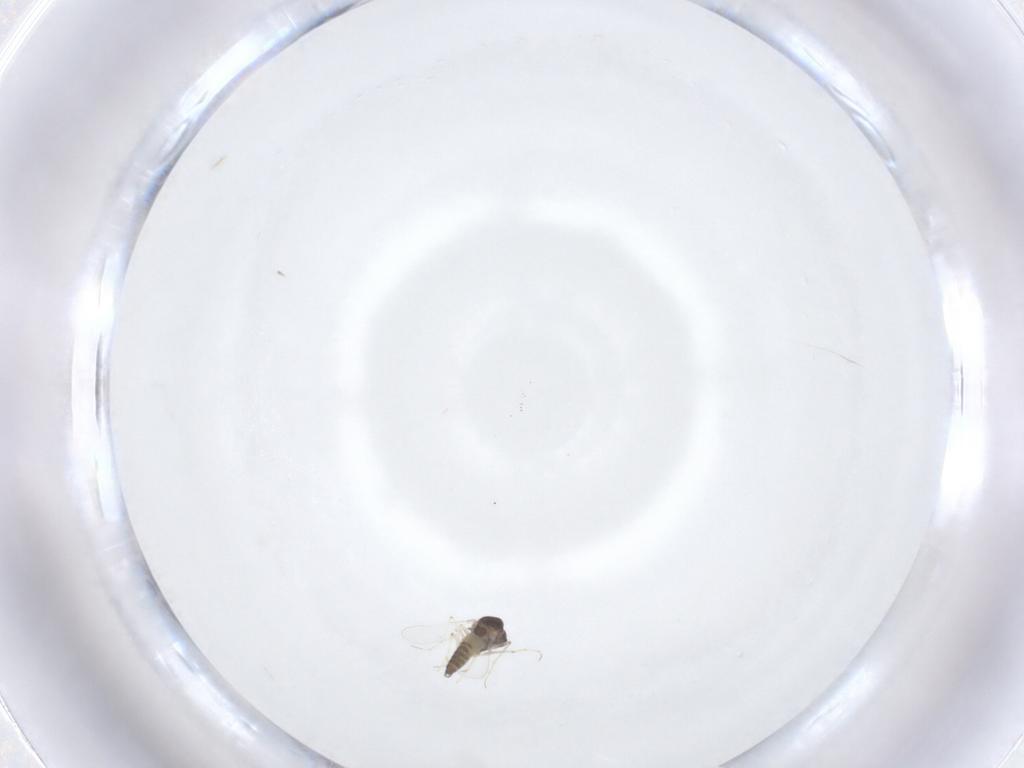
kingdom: Animalia
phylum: Arthropoda
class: Insecta
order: Diptera
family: Chironomidae
